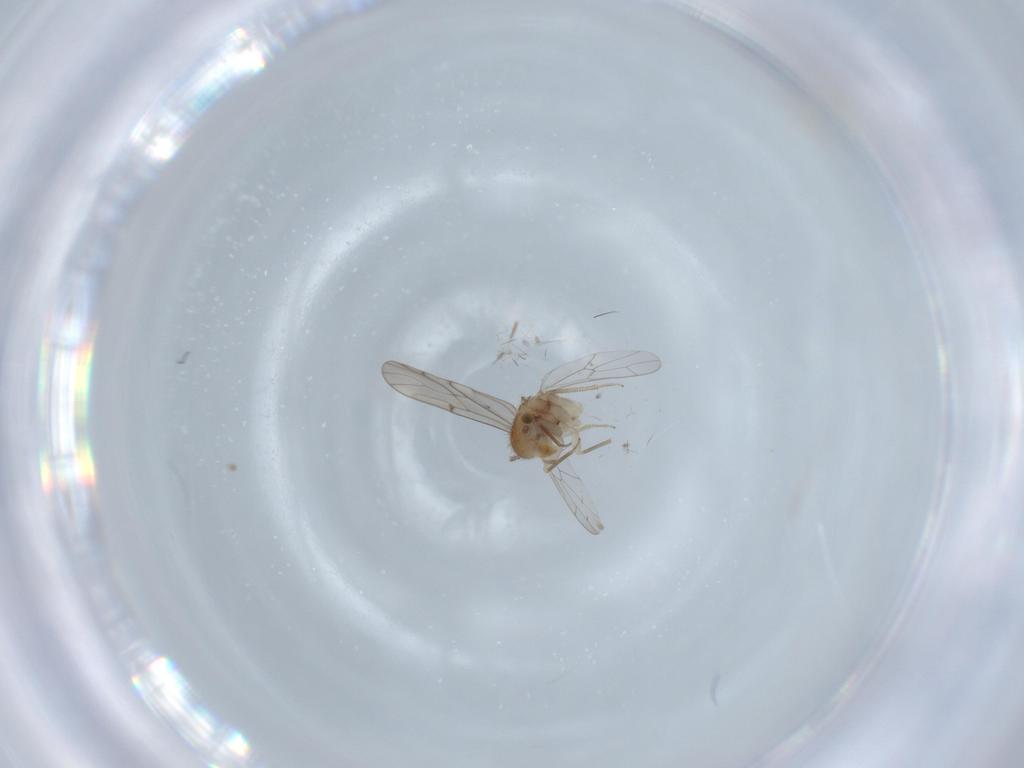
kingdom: Animalia
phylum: Arthropoda
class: Insecta
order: Psocodea
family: Ectopsocidae
